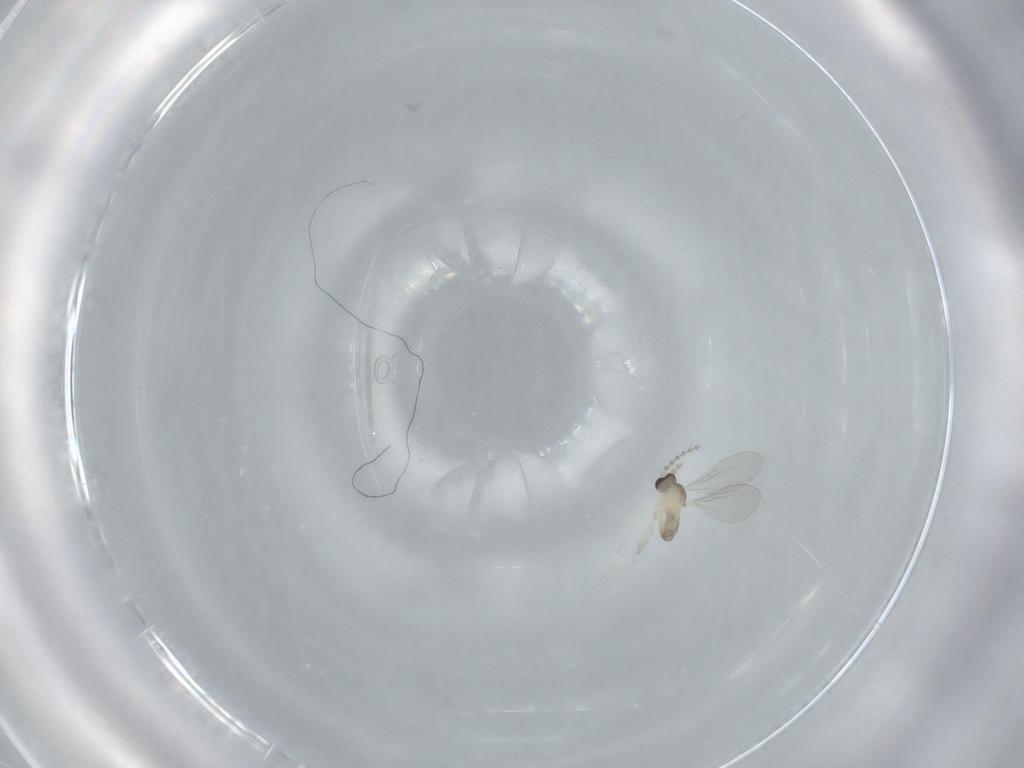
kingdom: Animalia
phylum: Arthropoda
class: Insecta
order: Diptera
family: Cecidomyiidae
